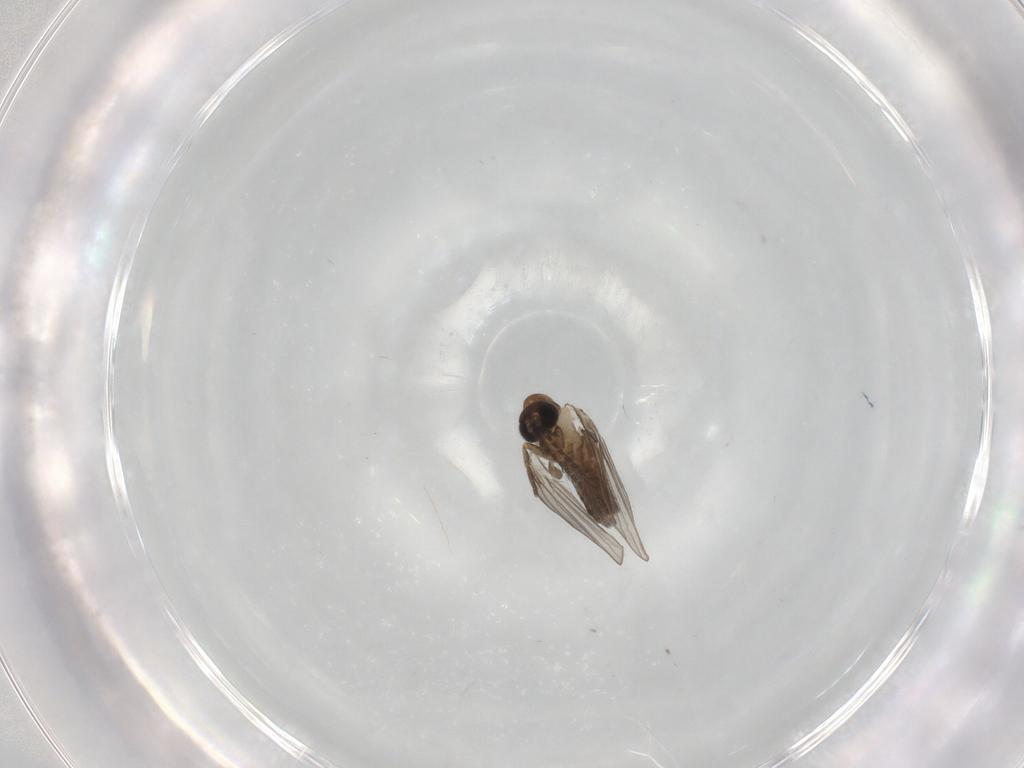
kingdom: Animalia
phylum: Arthropoda
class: Insecta
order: Diptera
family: Psychodidae
